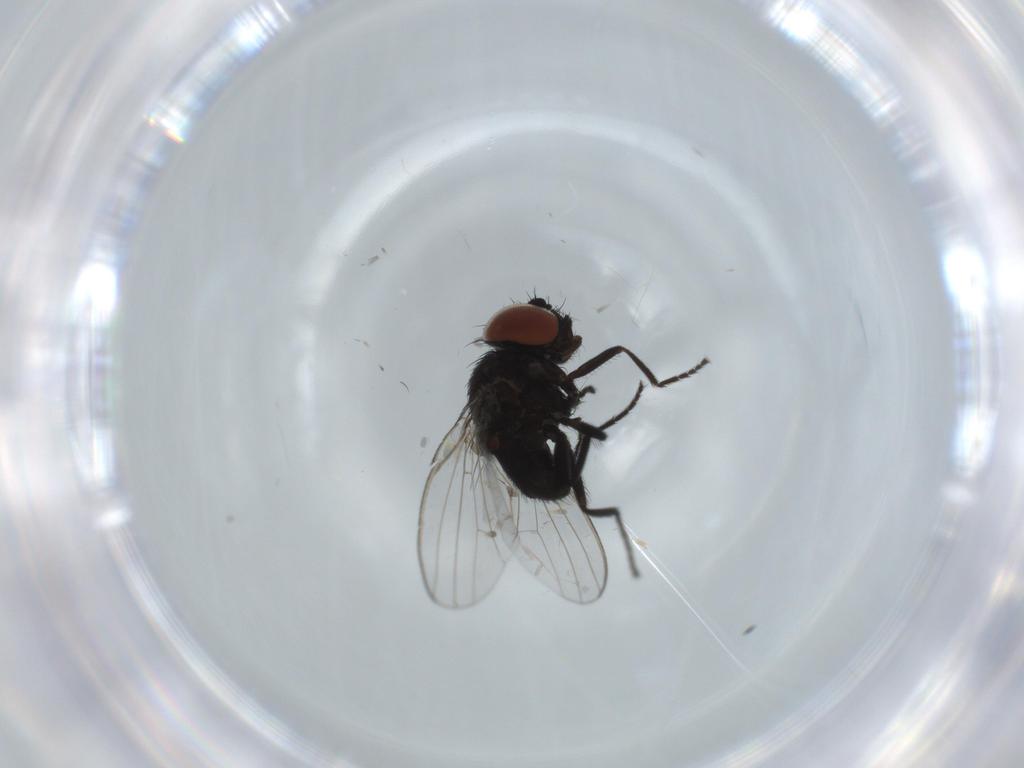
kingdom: Animalia
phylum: Arthropoda
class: Insecta
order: Diptera
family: Milichiidae
